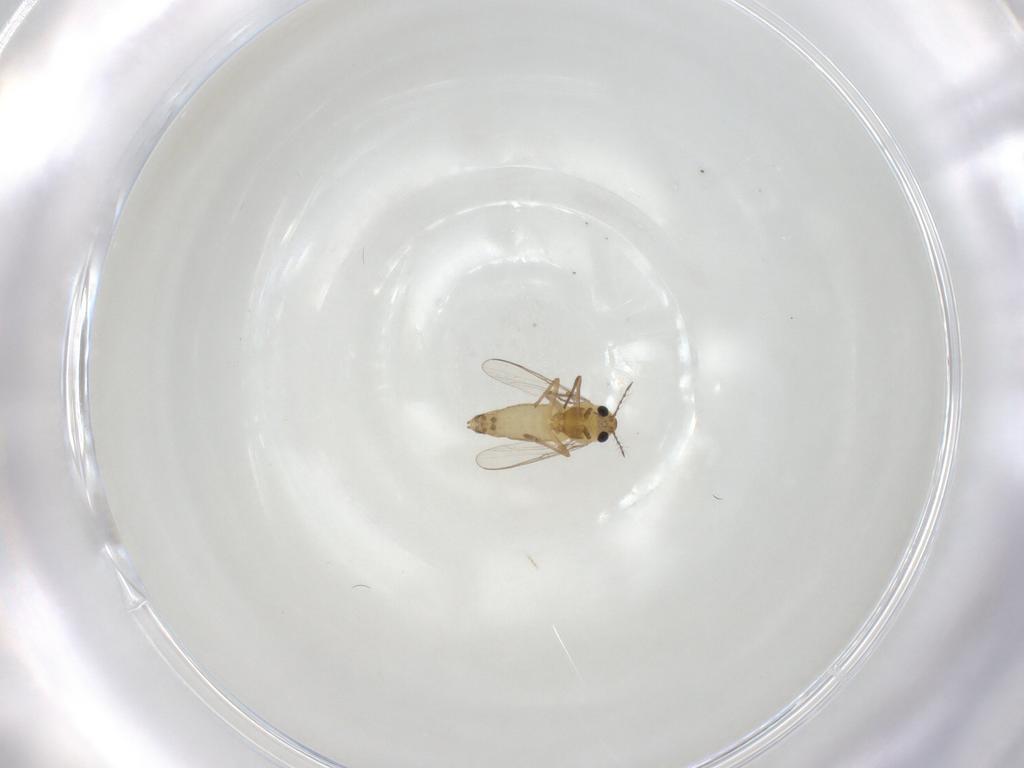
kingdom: Animalia
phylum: Arthropoda
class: Insecta
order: Diptera
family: Chironomidae
